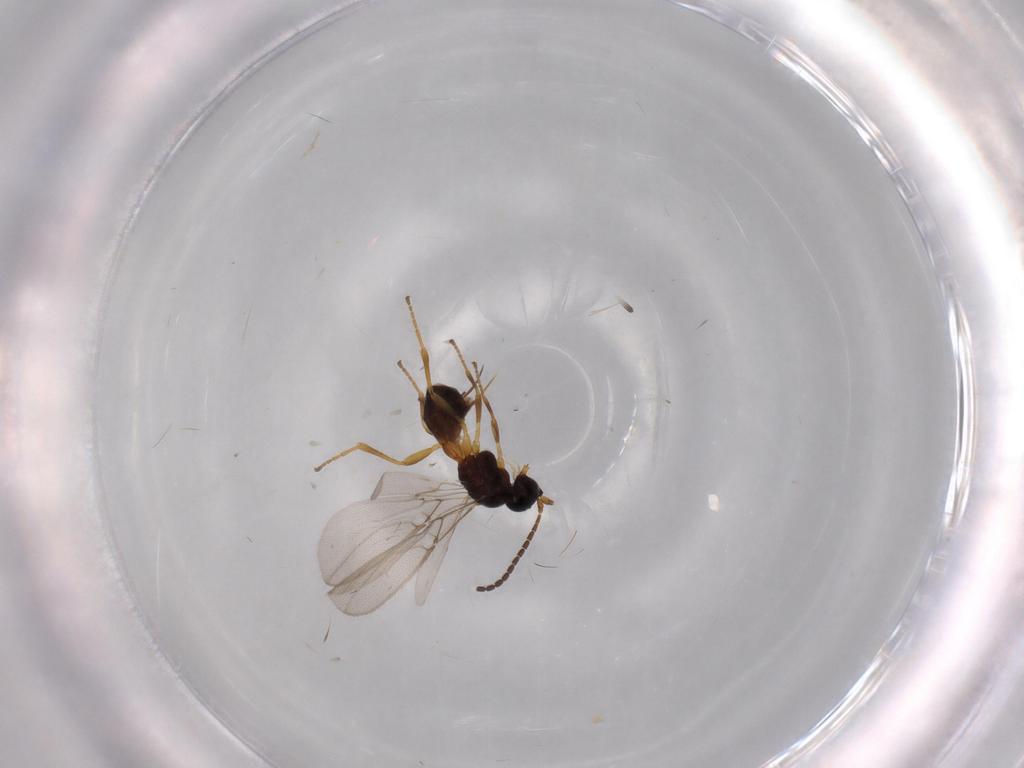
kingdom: Animalia
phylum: Arthropoda
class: Insecta
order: Hymenoptera
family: Braconidae
